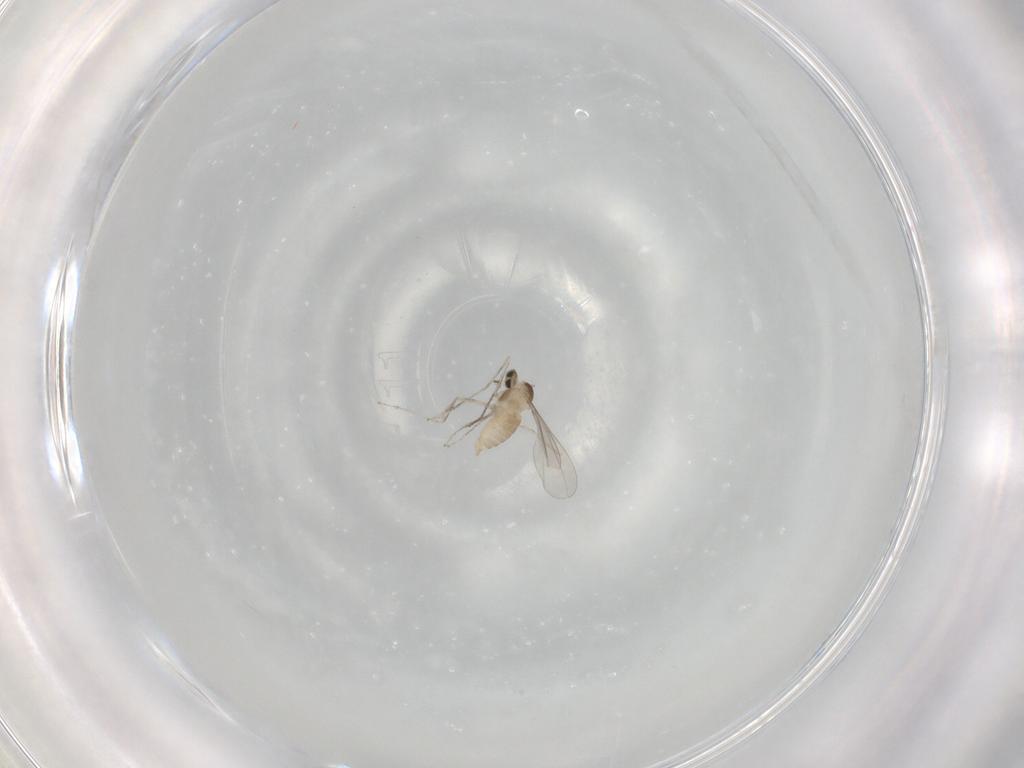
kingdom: Animalia
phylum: Arthropoda
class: Insecta
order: Diptera
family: Cecidomyiidae
